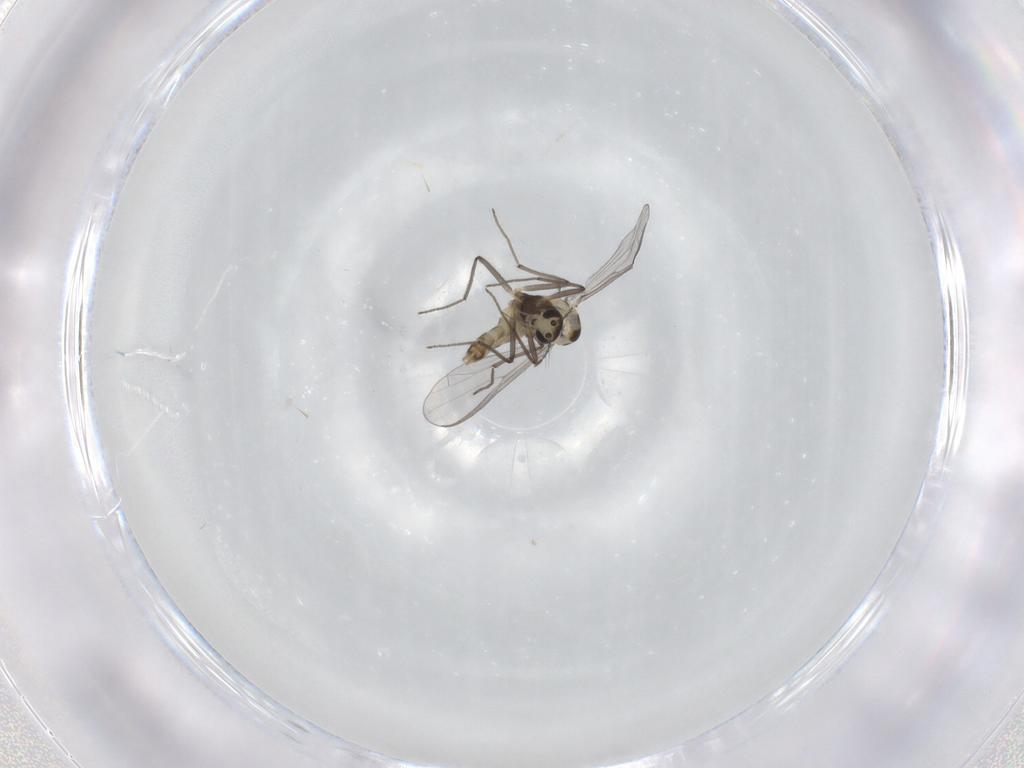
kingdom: Animalia
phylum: Arthropoda
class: Insecta
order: Diptera
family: Chironomidae
